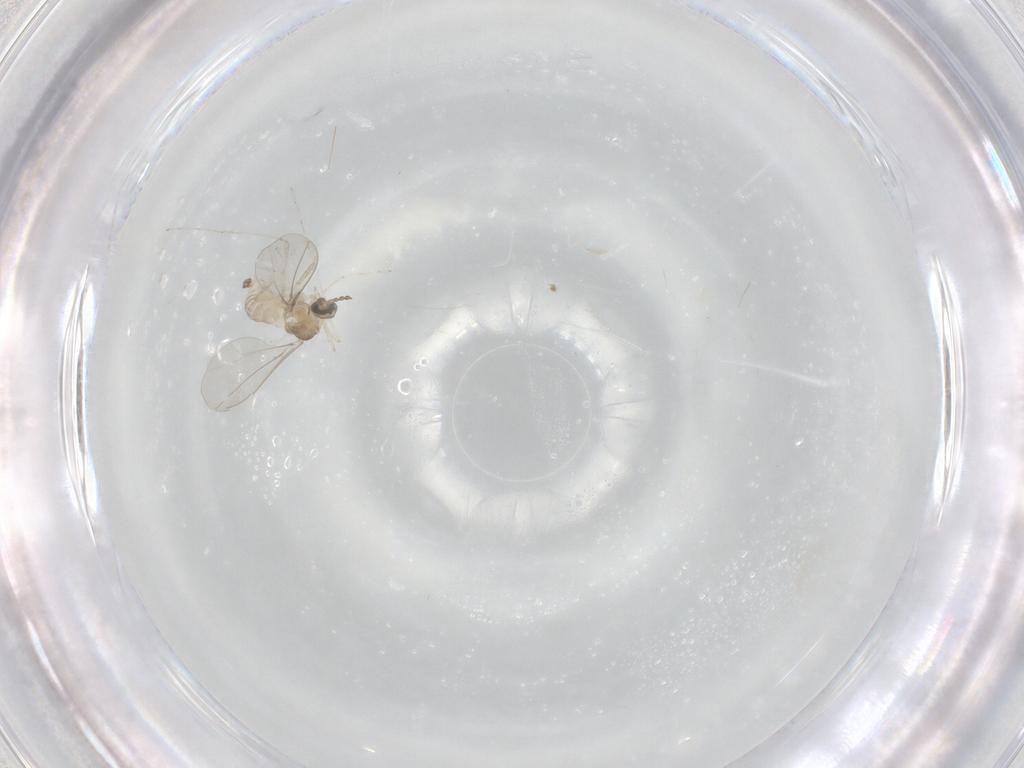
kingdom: Animalia
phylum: Arthropoda
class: Insecta
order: Diptera
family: Cecidomyiidae
